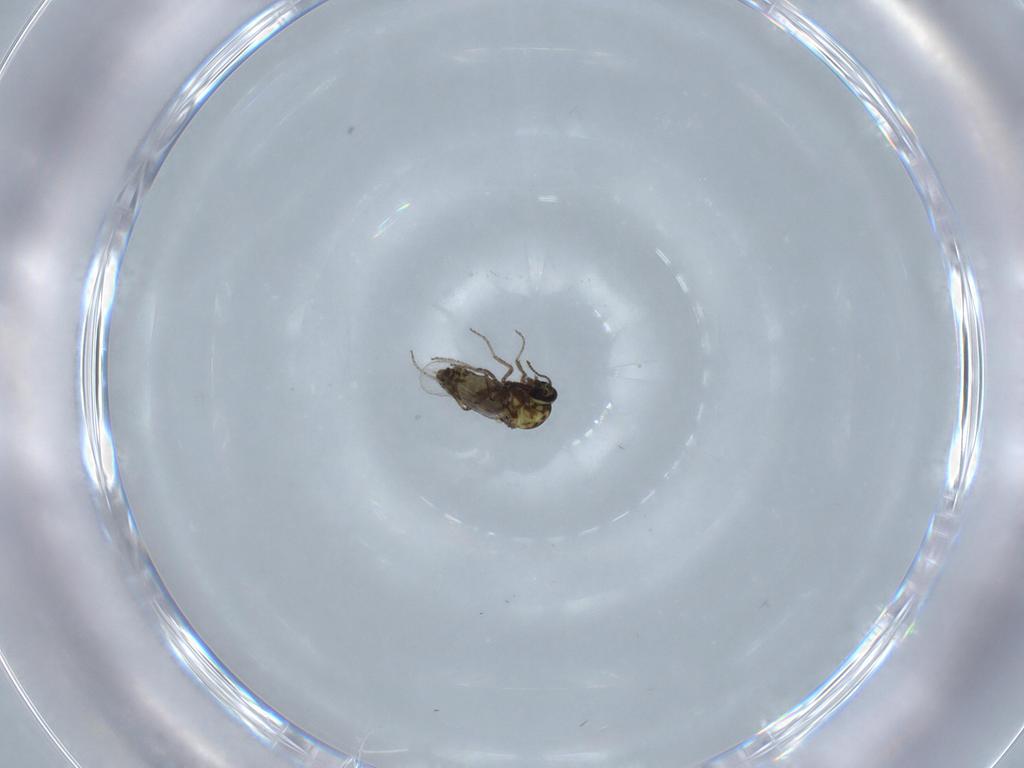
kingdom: Animalia
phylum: Arthropoda
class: Insecta
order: Diptera
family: Ceratopogonidae
